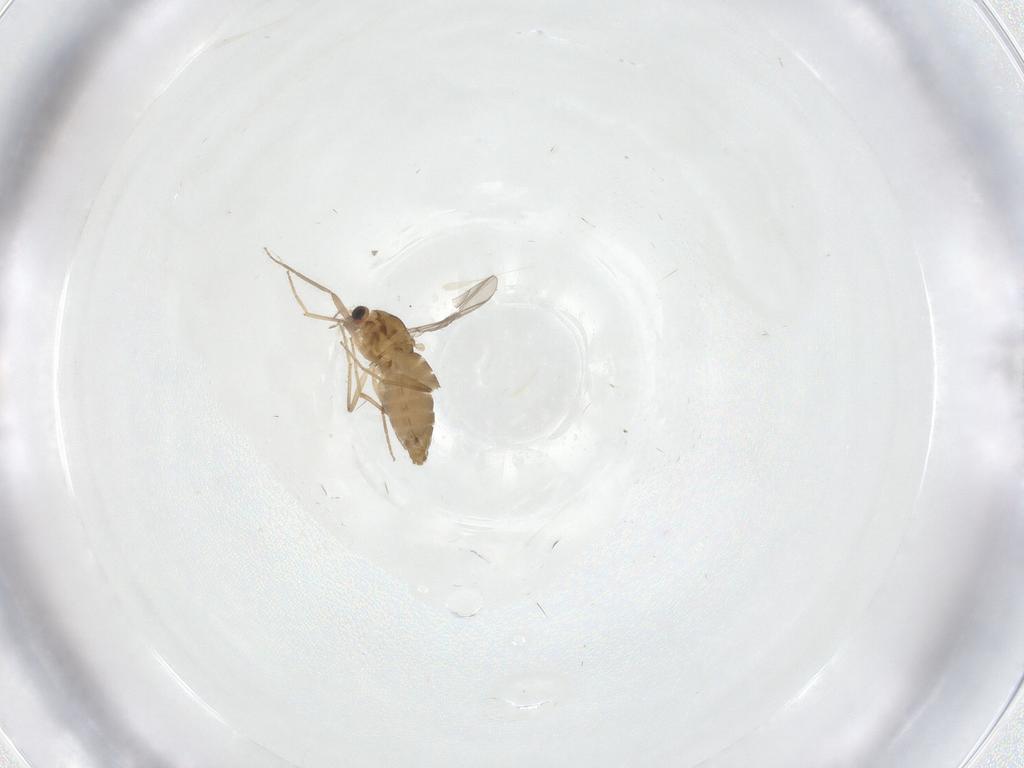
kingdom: Animalia
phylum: Arthropoda
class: Insecta
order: Diptera
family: Chironomidae
